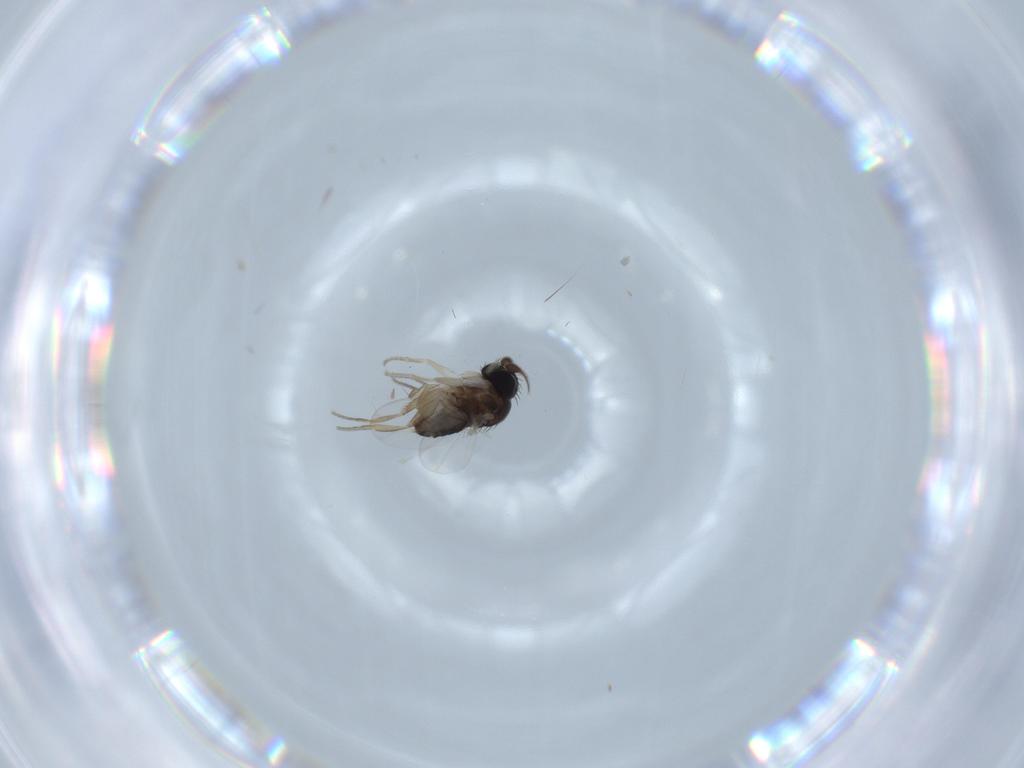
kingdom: Animalia
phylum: Arthropoda
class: Insecta
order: Diptera
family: Phoridae
